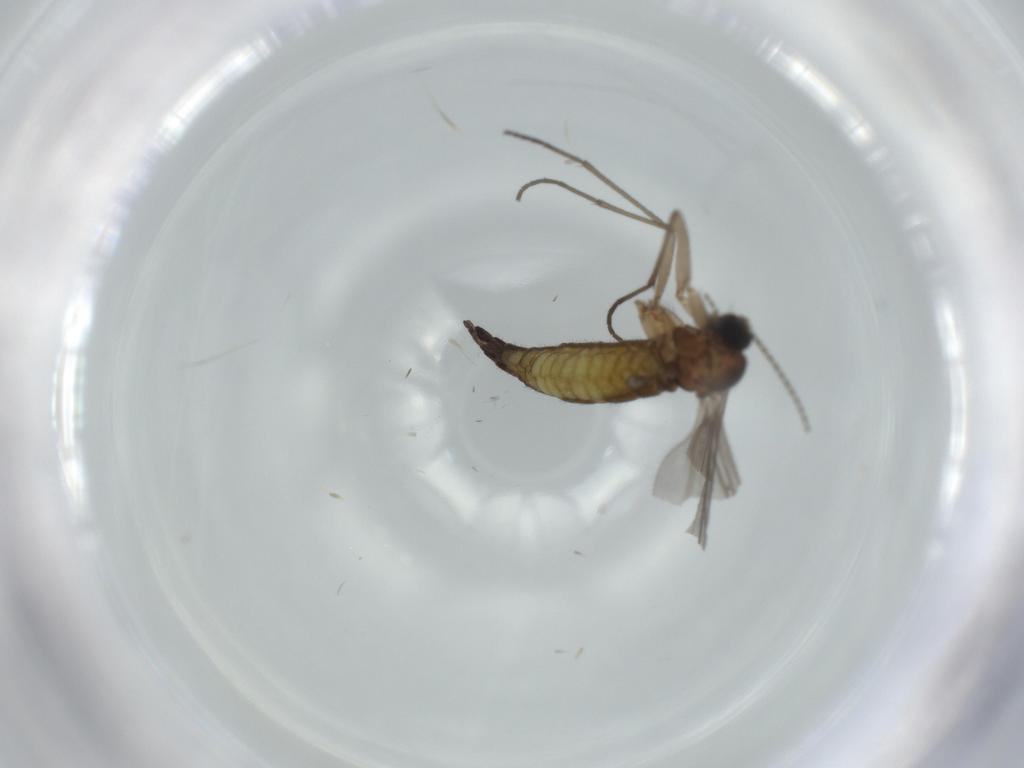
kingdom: Animalia
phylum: Arthropoda
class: Insecta
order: Diptera
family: Sciaridae
